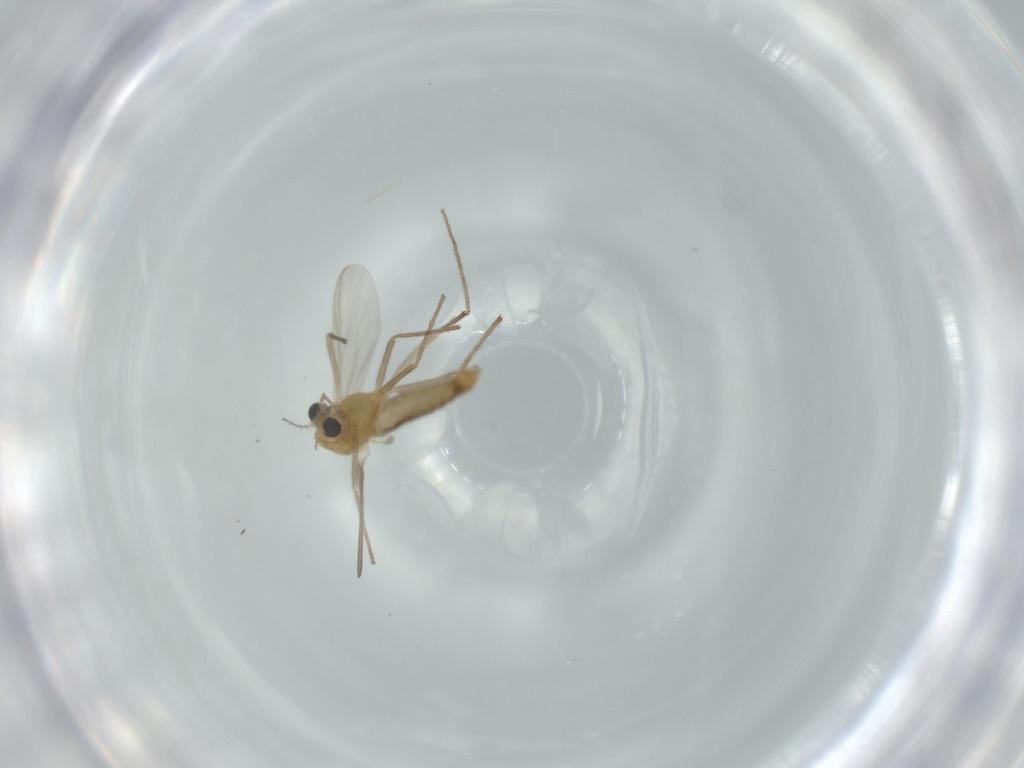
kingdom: Animalia
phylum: Arthropoda
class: Insecta
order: Diptera
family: Chironomidae
